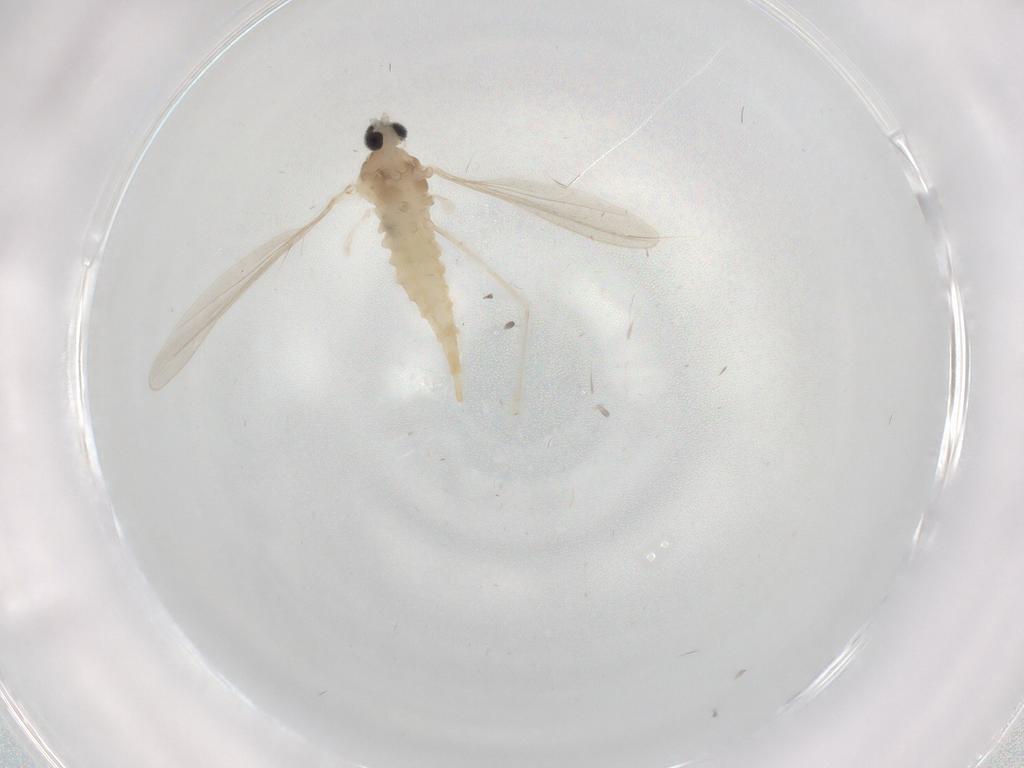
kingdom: Animalia
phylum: Arthropoda
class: Insecta
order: Diptera
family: Chloropidae
